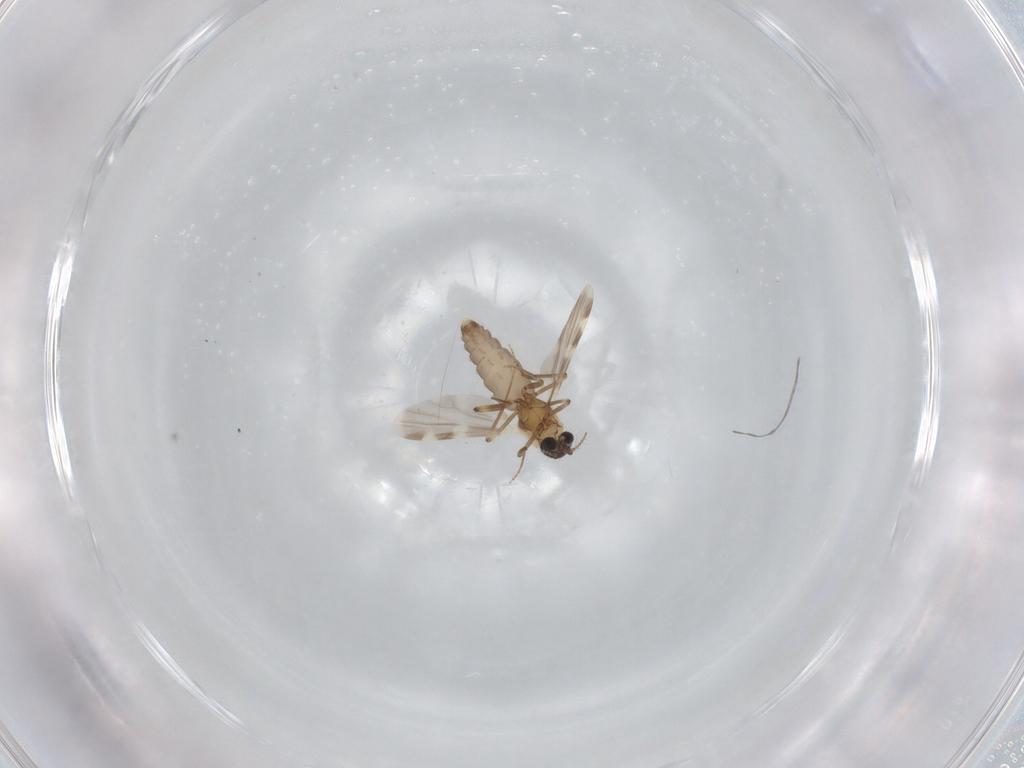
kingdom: Animalia
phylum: Arthropoda
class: Insecta
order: Diptera
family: Ceratopogonidae
